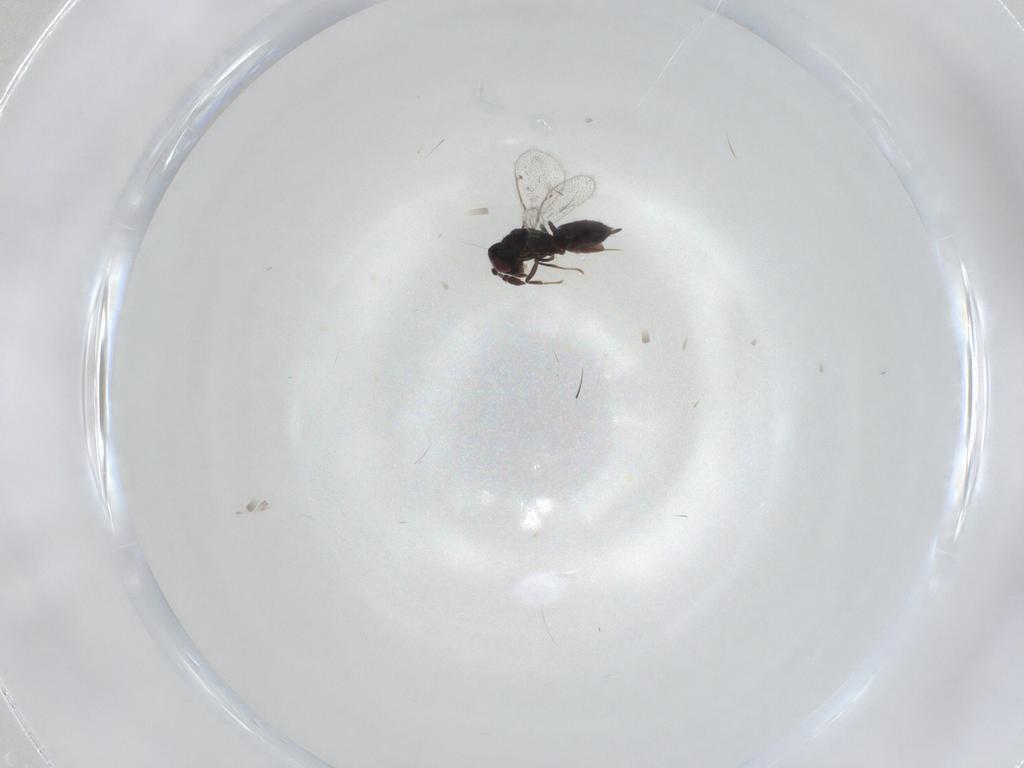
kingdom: Animalia
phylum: Arthropoda
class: Insecta
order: Hymenoptera
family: Pirenidae
